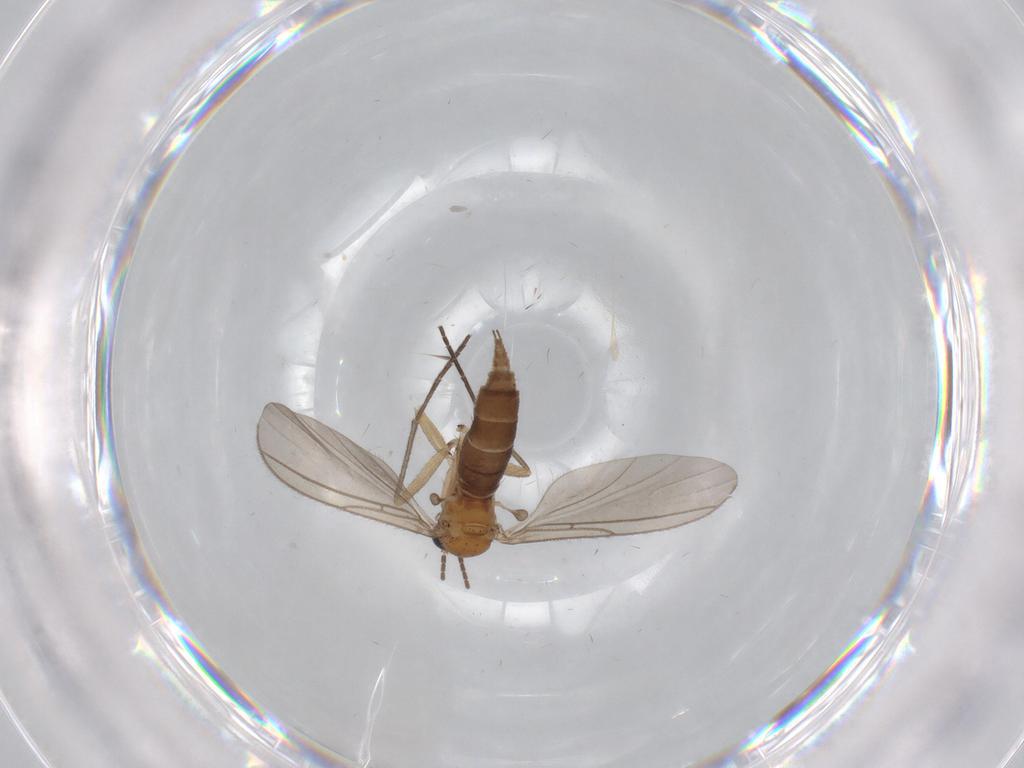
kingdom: Animalia
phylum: Arthropoda
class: Insecta
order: Diptera
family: Sciaridae
